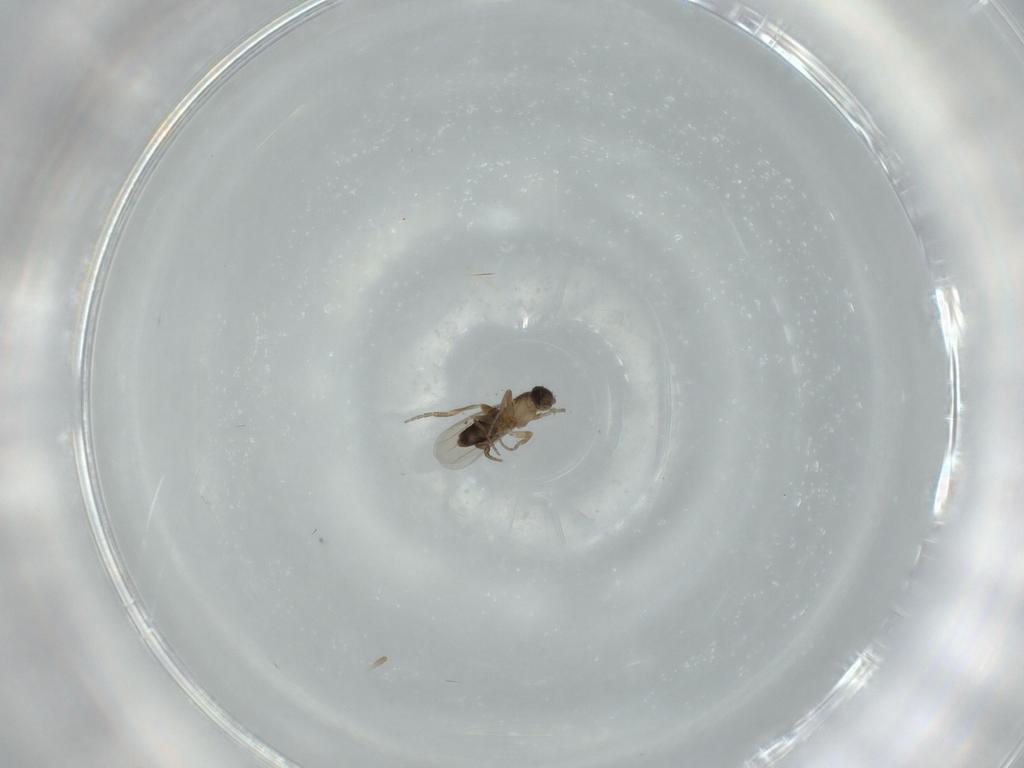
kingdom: Animalia
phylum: Arthropoda
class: Insecta
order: Diptera
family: Phoridae
